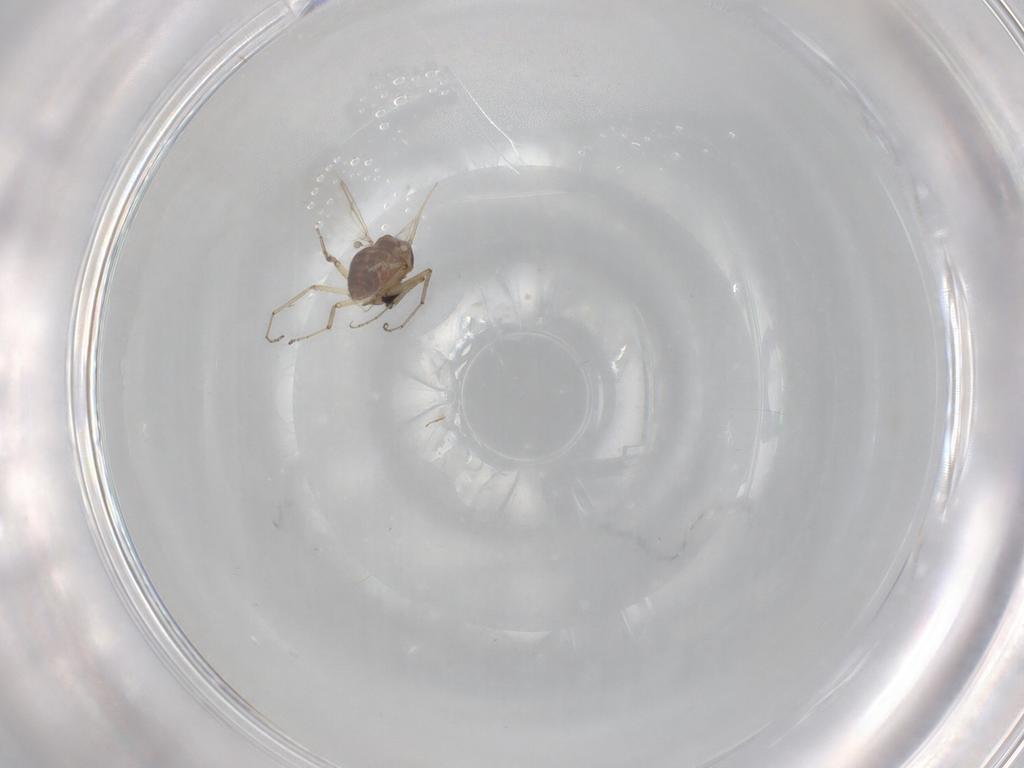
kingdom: Animalia
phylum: Arthropoda
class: Insecta
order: Diptera
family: Ceratopogonidae
